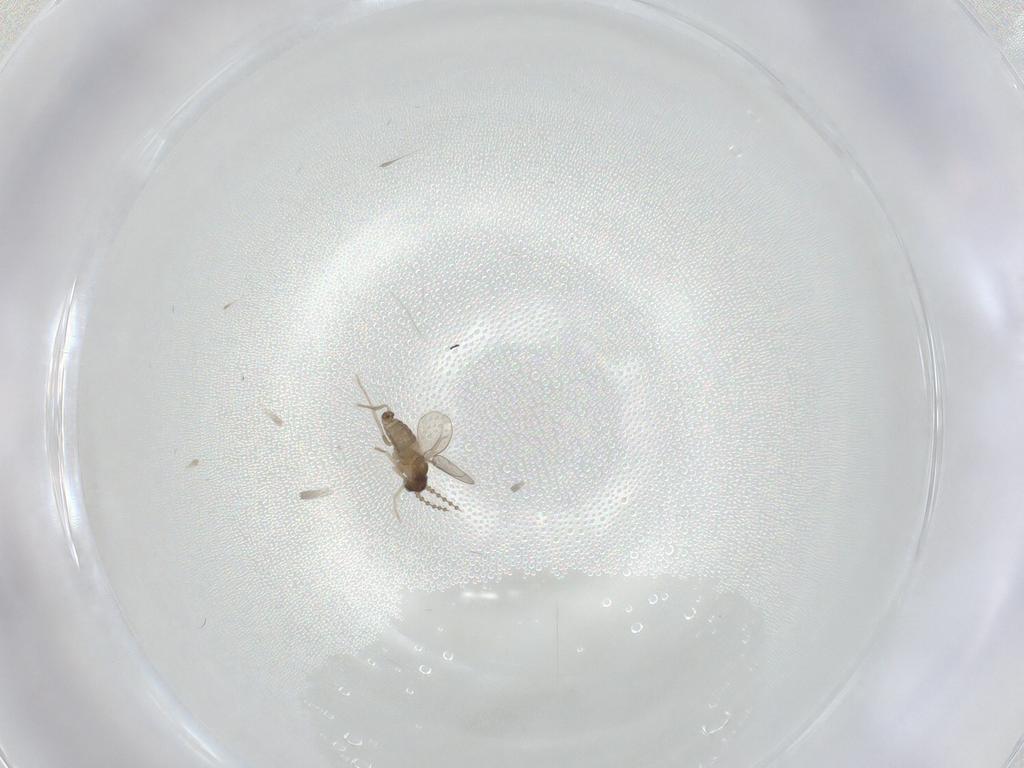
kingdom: Animalia
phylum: Arthropoda
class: Insecta
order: Diptera
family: Cecidomyiidae
